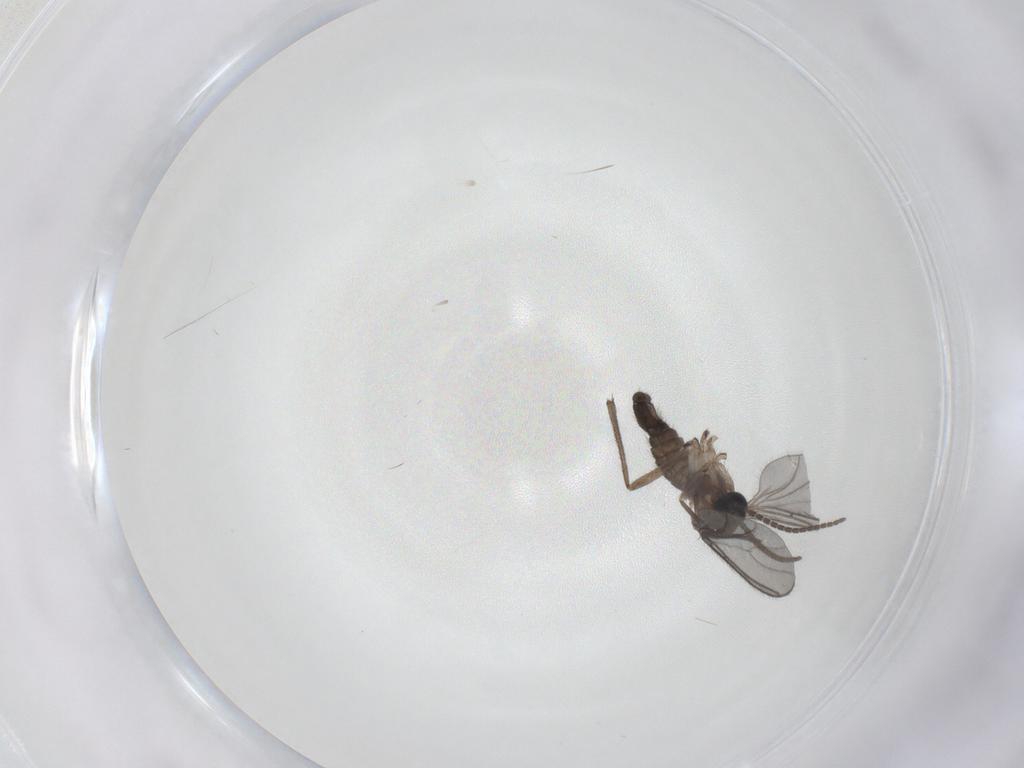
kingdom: Animalia
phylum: Arthropoda
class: Insecta
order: Diptera
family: Sciaridae
